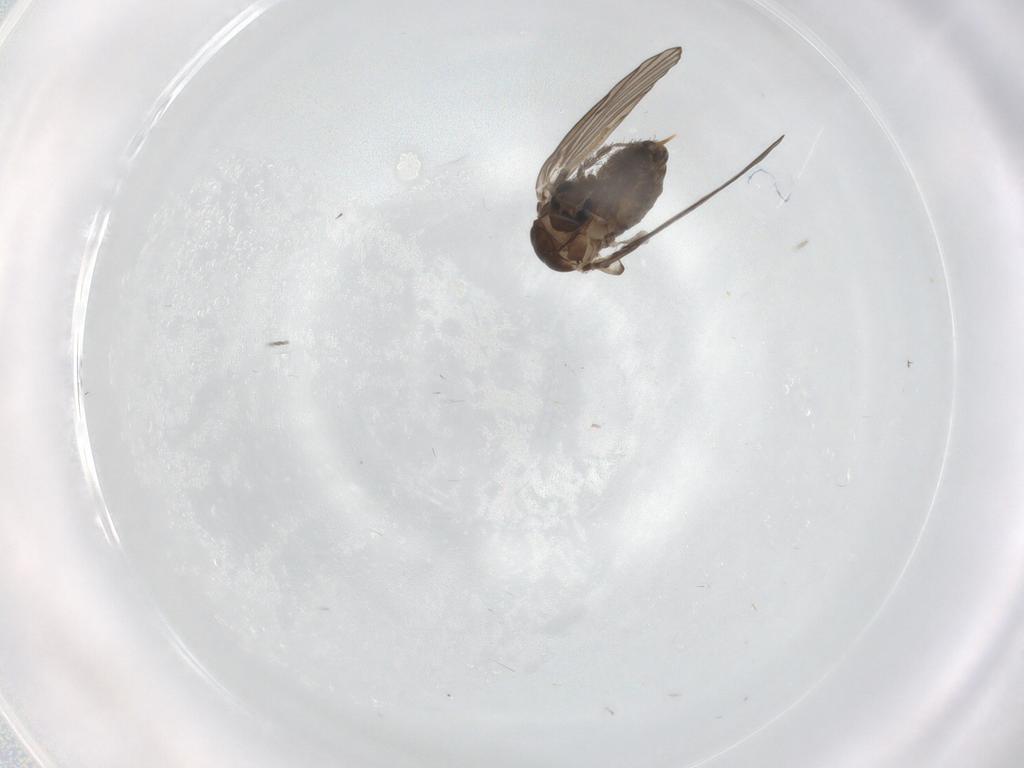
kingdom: Animalia
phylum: Arthropoda
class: Insecta
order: Diptera
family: Psychodidae
